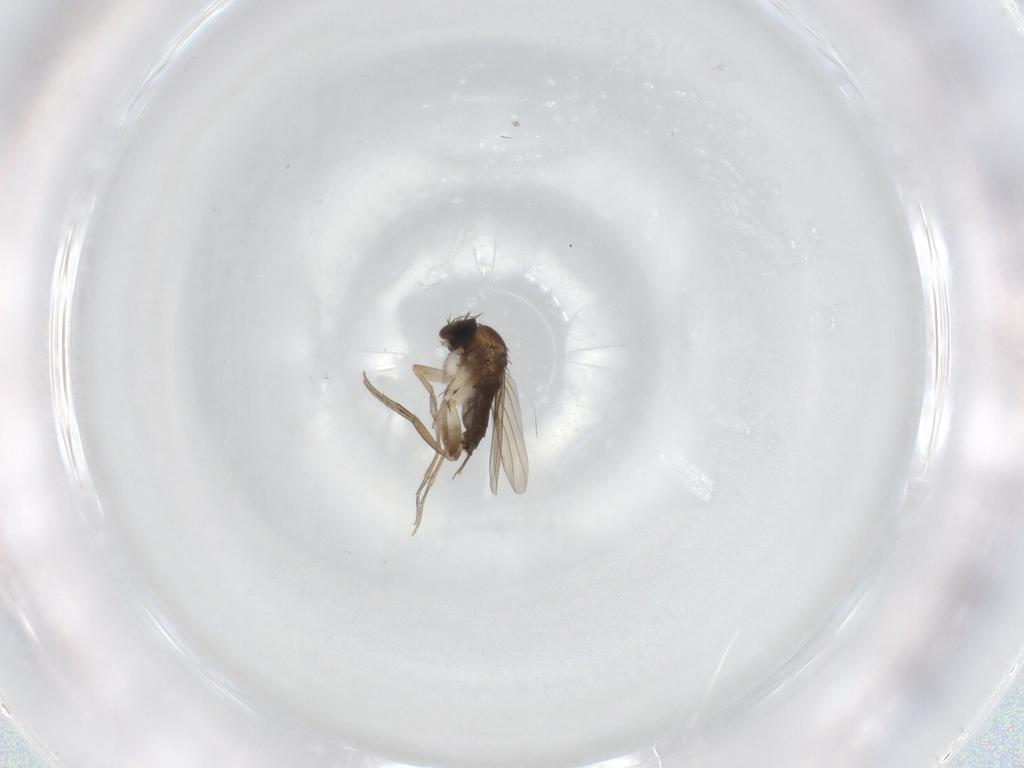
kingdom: Animalia
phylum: Arthropoda
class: Insecta
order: Diptera
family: Phoridae
